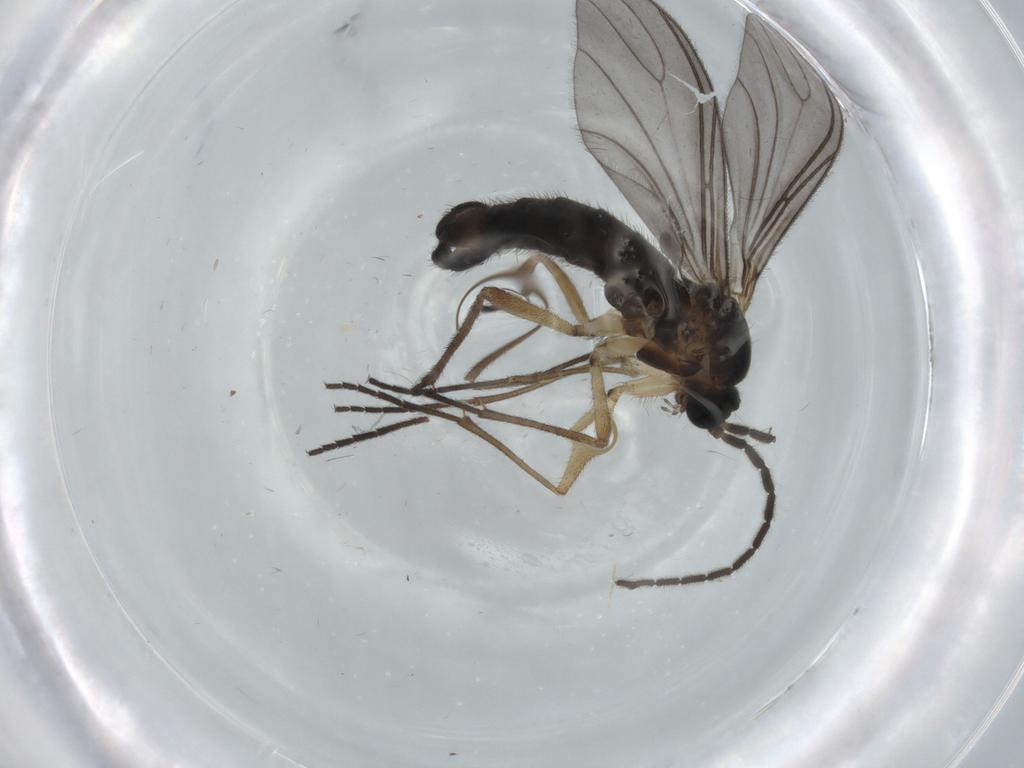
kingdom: Animalia
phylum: Arthropoda
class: Insecta
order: Diptera
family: Sciaridae
